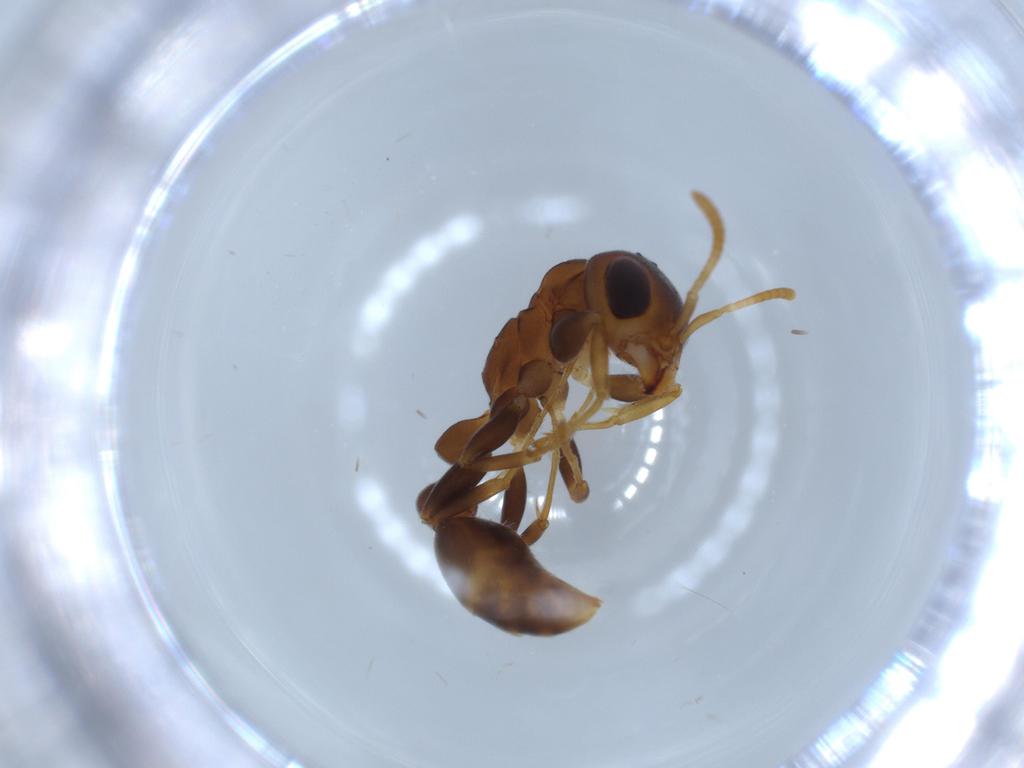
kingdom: Animalia
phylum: Arthropoda
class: Insecta
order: Hymenoptera
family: Formicidae
